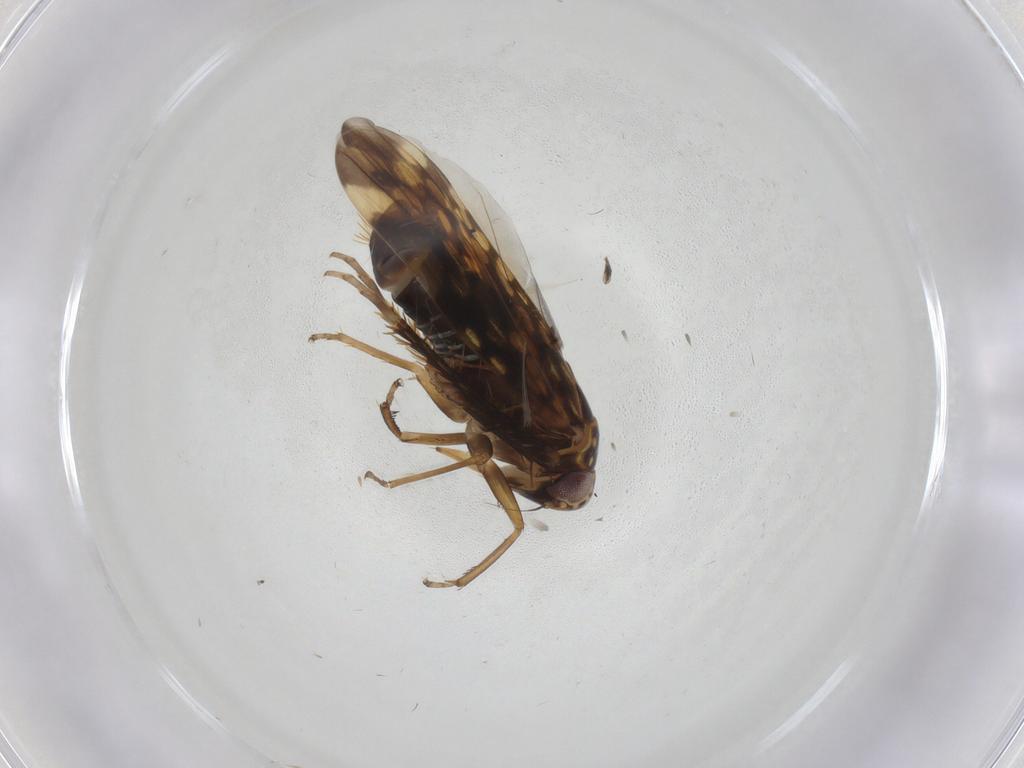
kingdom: Animalia
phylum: Arthropoda
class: Insecta
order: Hemiptera
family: Cicadellidae
